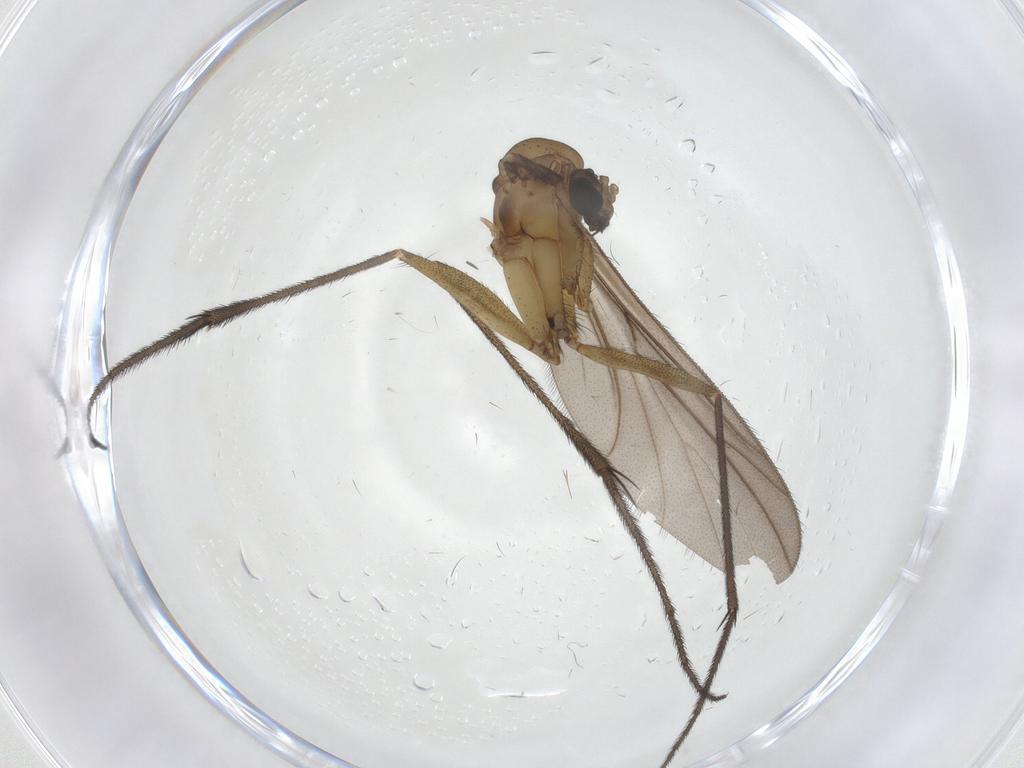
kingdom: Animalia
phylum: Arthropoda
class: Insecta
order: Diptera
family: Ditomyiidae
